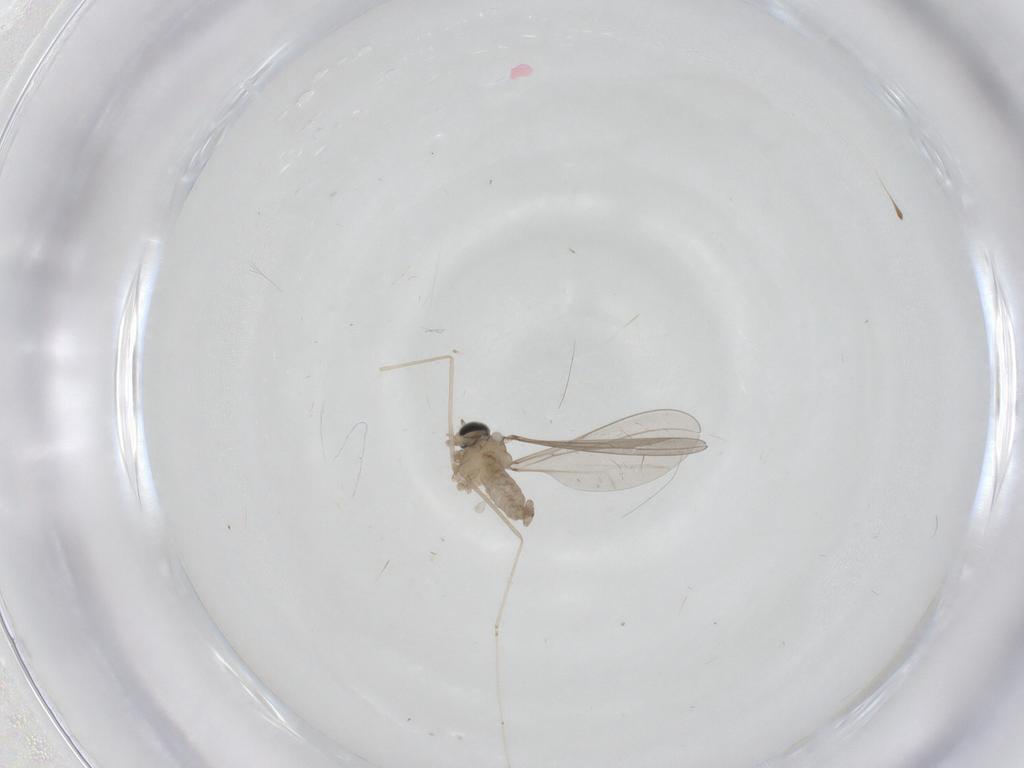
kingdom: Animalia
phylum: Arthropoda
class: Insecta
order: Diptera
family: Cecidomyiidae
